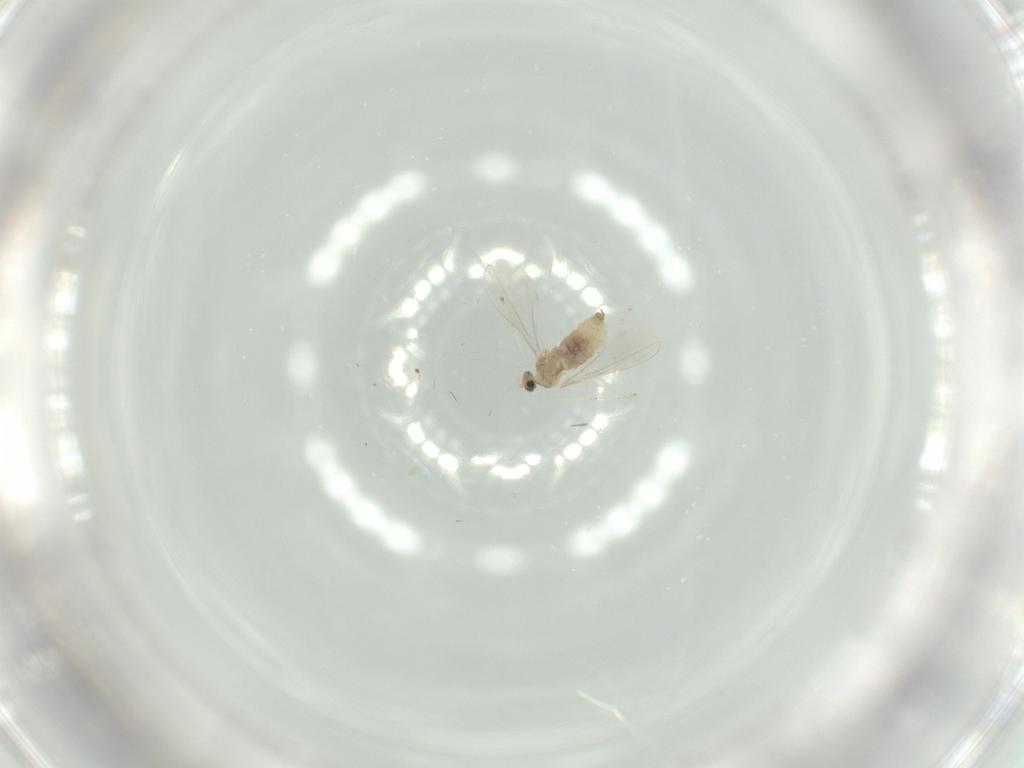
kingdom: Animalia
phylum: Arthropoda
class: Insecta
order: Diptera
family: Cecidomyiidae
